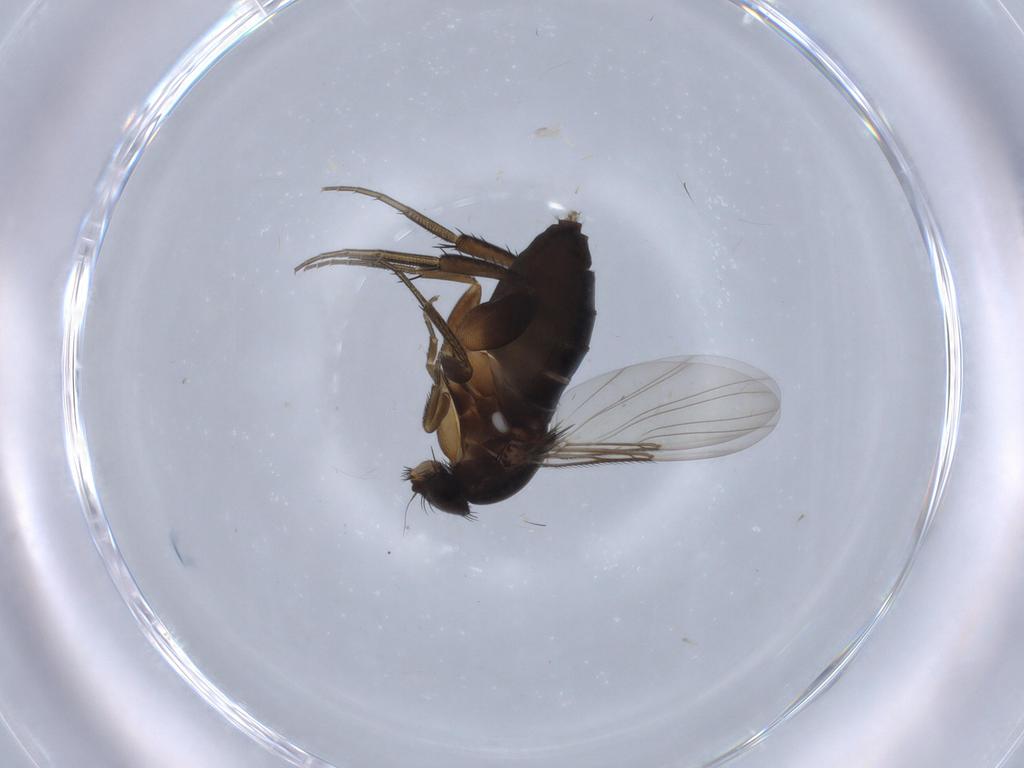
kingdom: Animalia
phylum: Arthropoda
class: Insecta
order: Diptera
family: Phoridae
